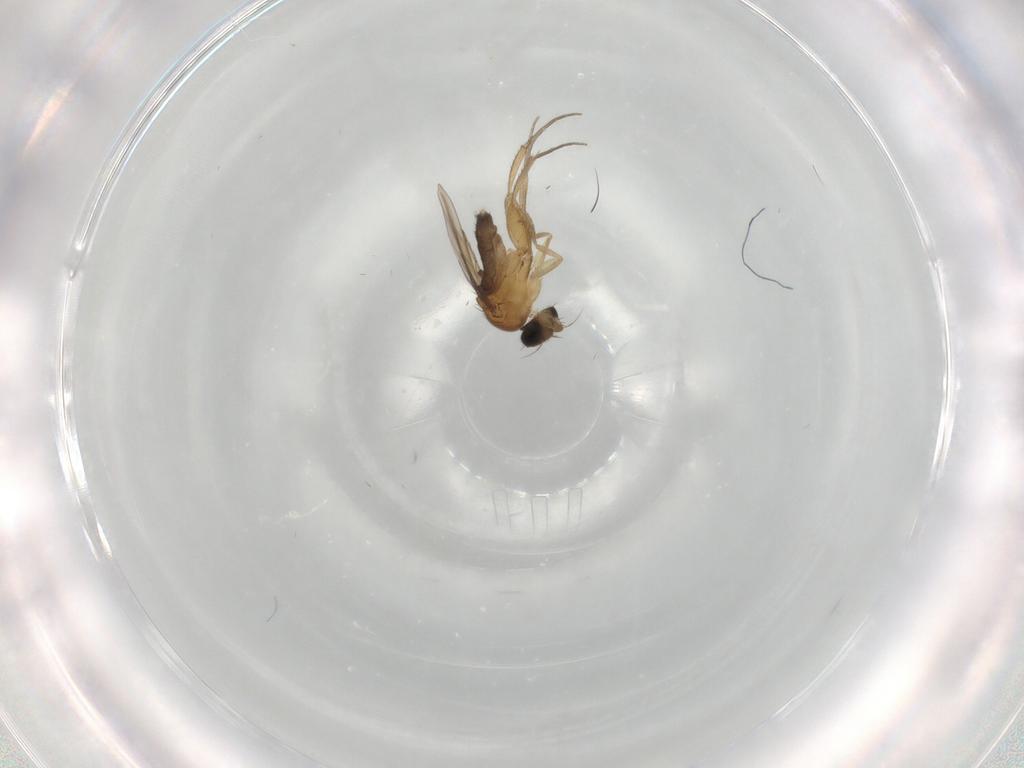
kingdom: Animalia
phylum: Arthropoda
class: Insecta
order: Diptera
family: Phoridae
